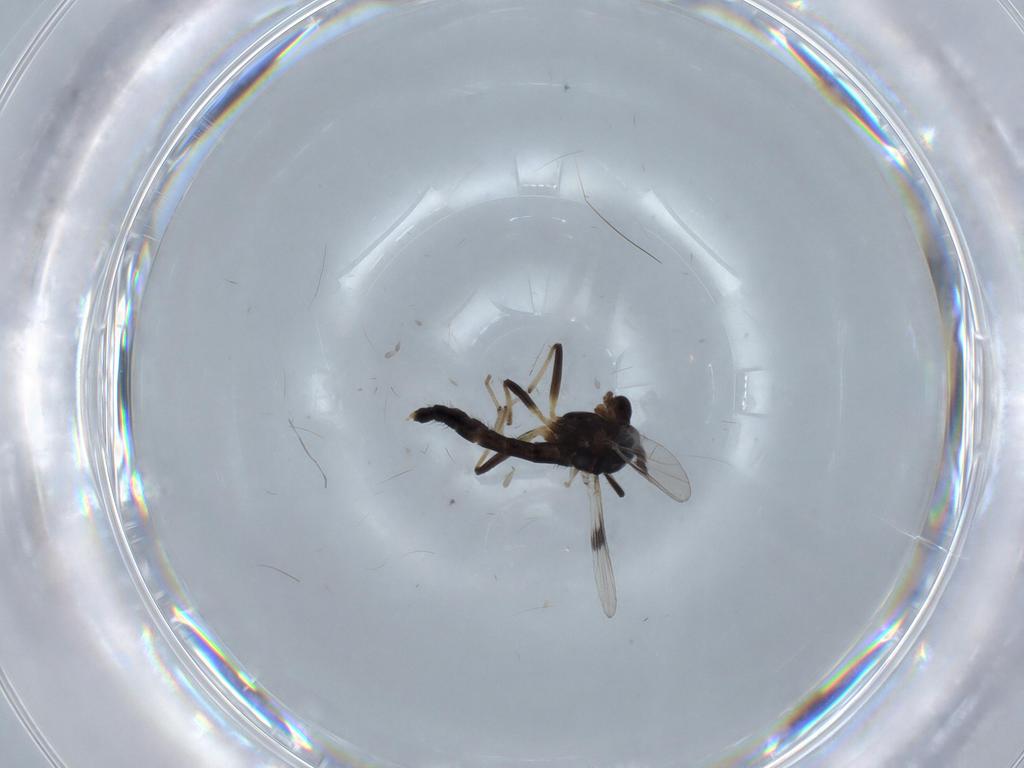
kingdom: Animalia
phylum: Arthropoda
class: Insecta
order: Diptera
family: Chironomidae
